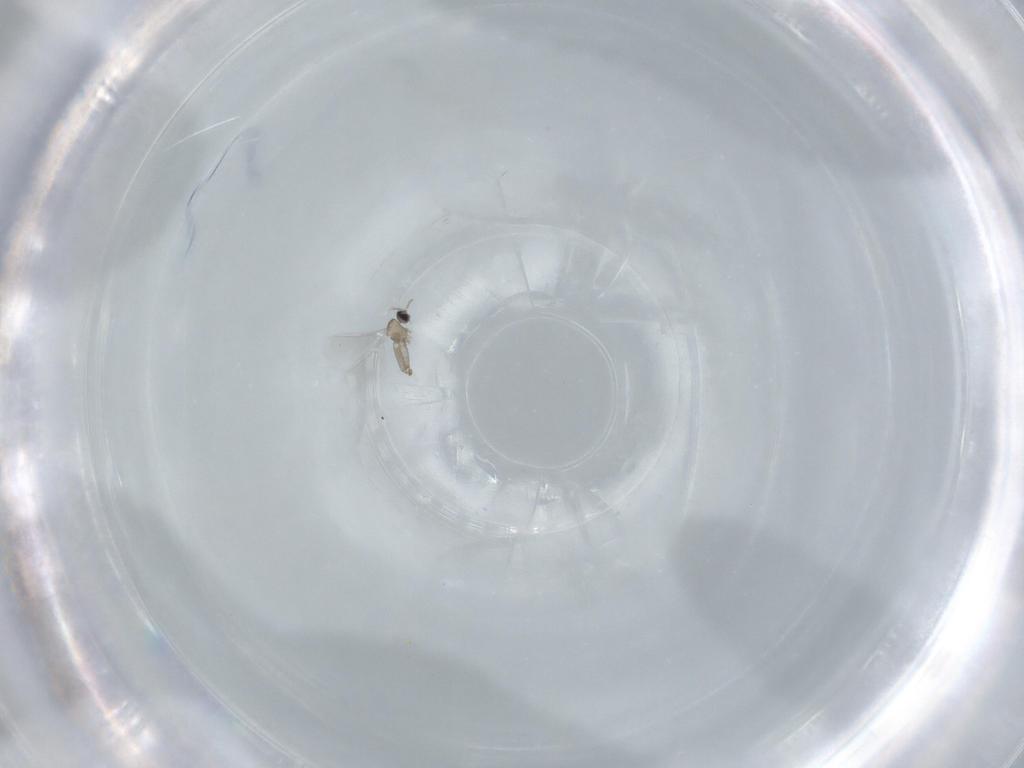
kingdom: Animalia
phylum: Arthropoda
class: Insecta
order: Diptera
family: Cecidomyiidae
